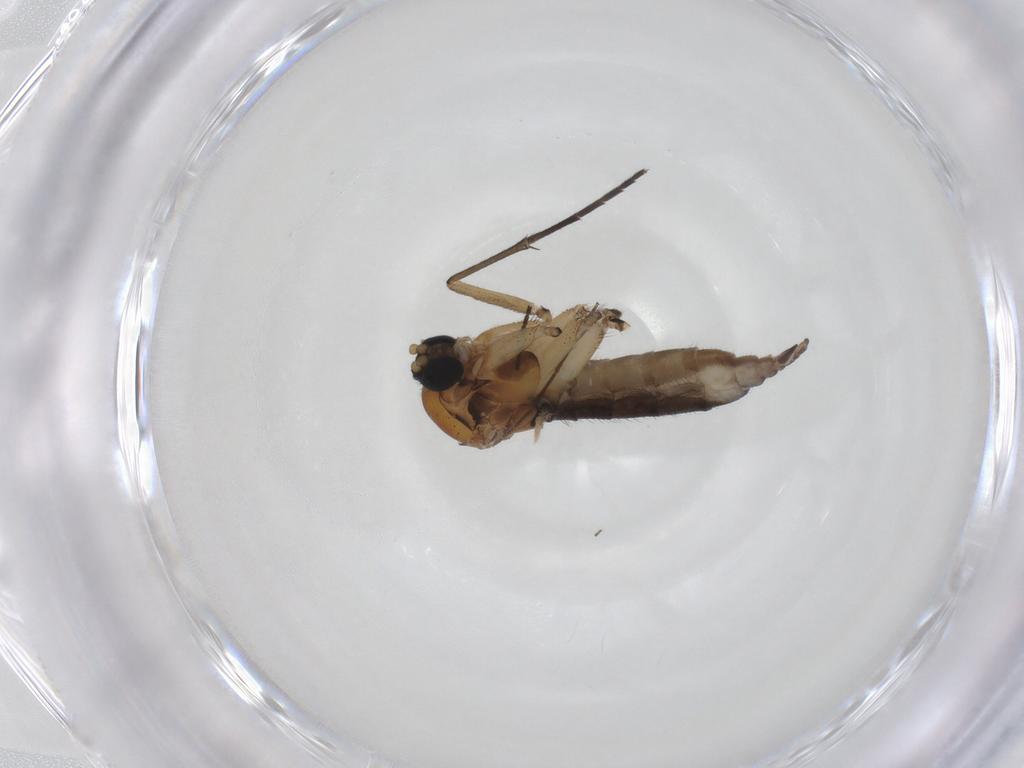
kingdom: Animalia
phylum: Arthropoda
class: Insecta
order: Diptera
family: Sciaridae
